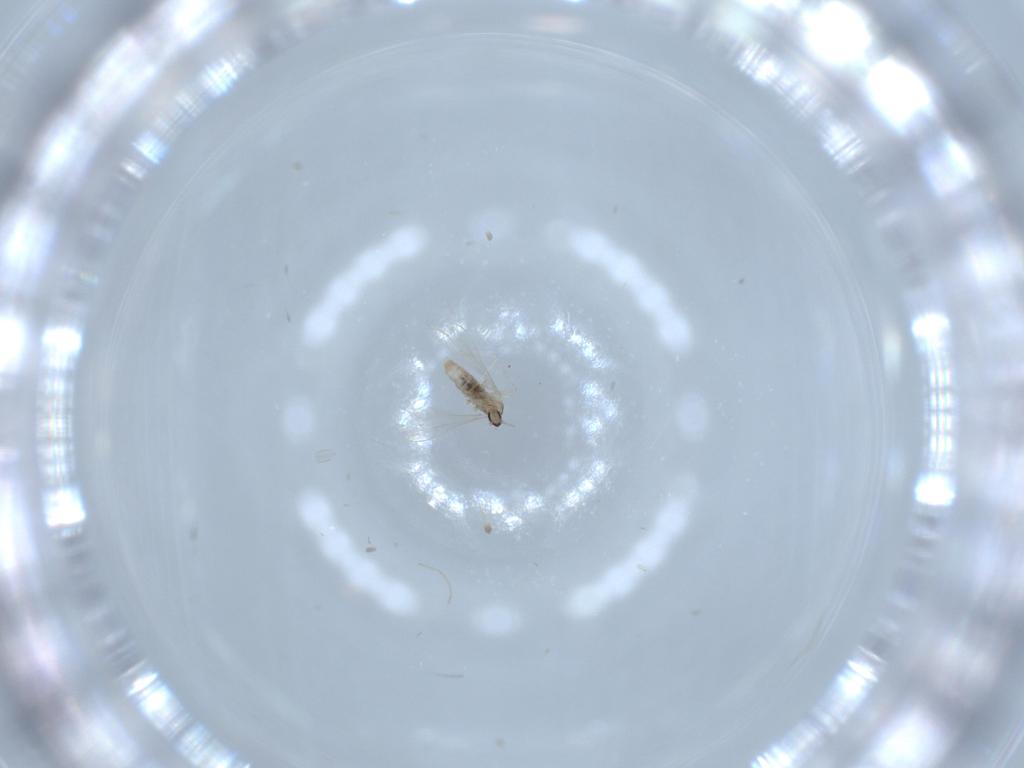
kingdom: Animalia
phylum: Arthropoda
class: Insecta
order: Diptera
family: Cecidomyiidae
